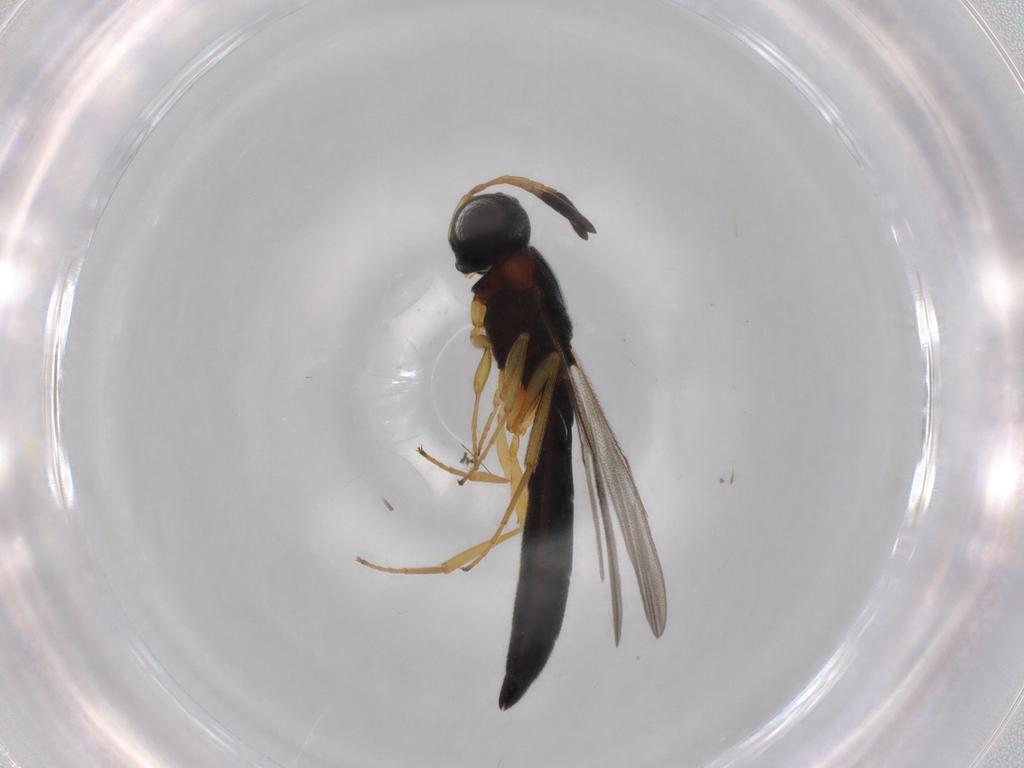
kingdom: Animalia
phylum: Arthropoda
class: Insecta
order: Hymenoptera
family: Scelionidae
